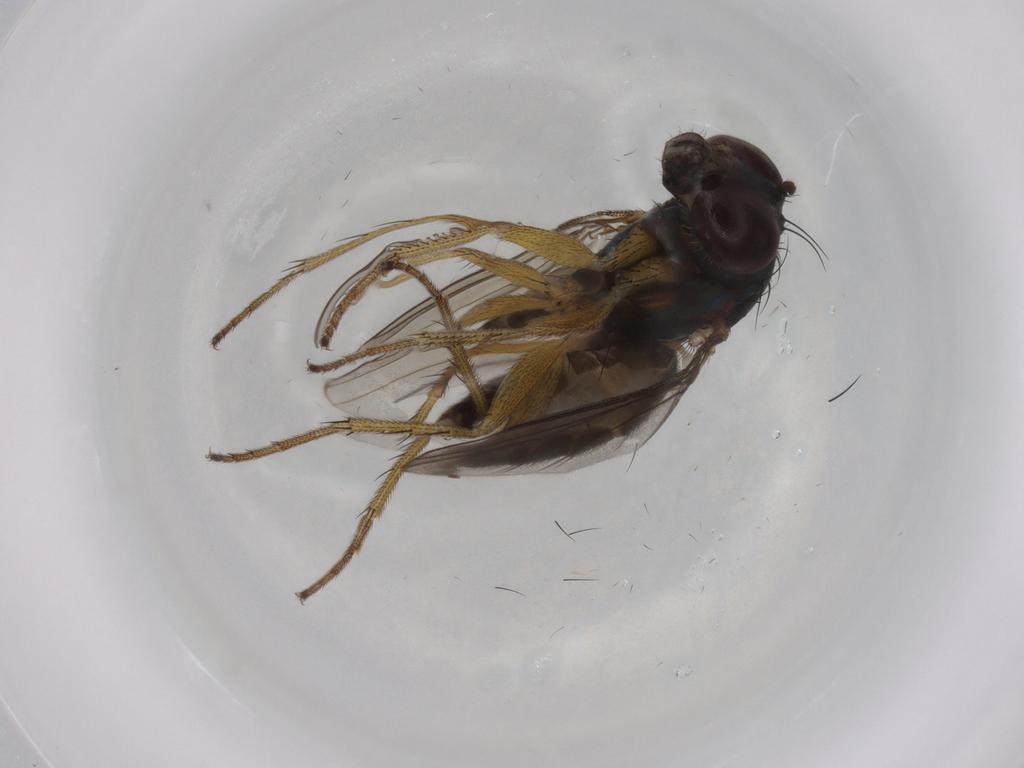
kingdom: Animalia
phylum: Arthropoda
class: Insecta
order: Diptera
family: Dolichopodidae
